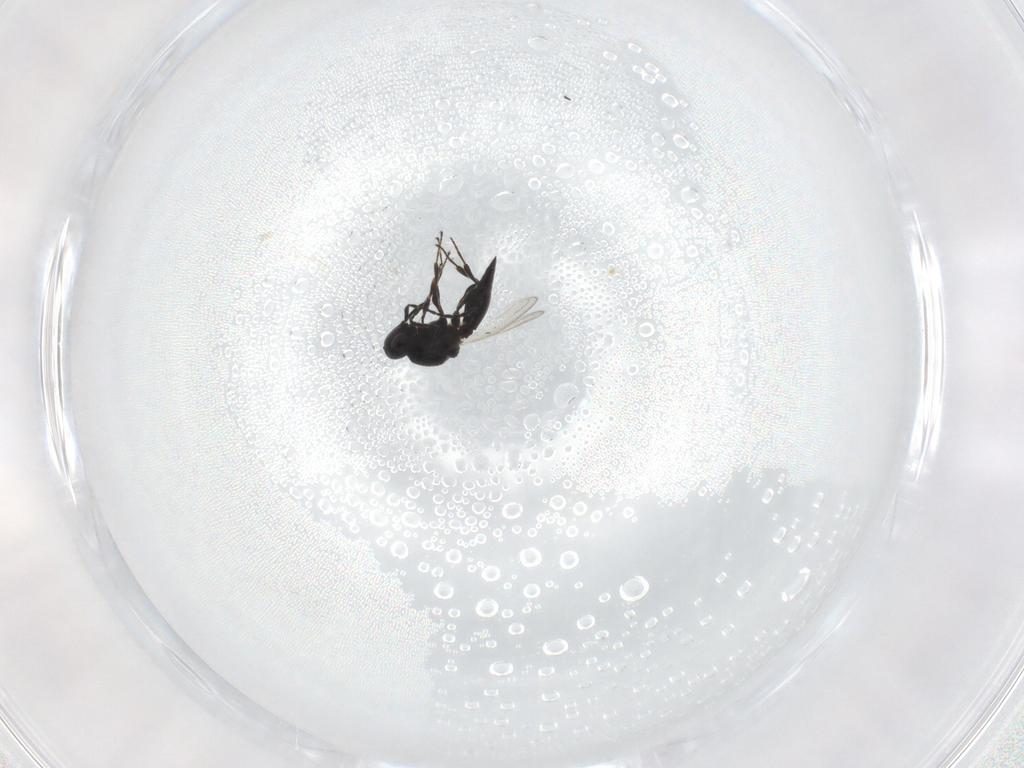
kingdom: Animalia
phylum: Arthropoda
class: Insecta
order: Hymenoptera
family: Platygastridae
